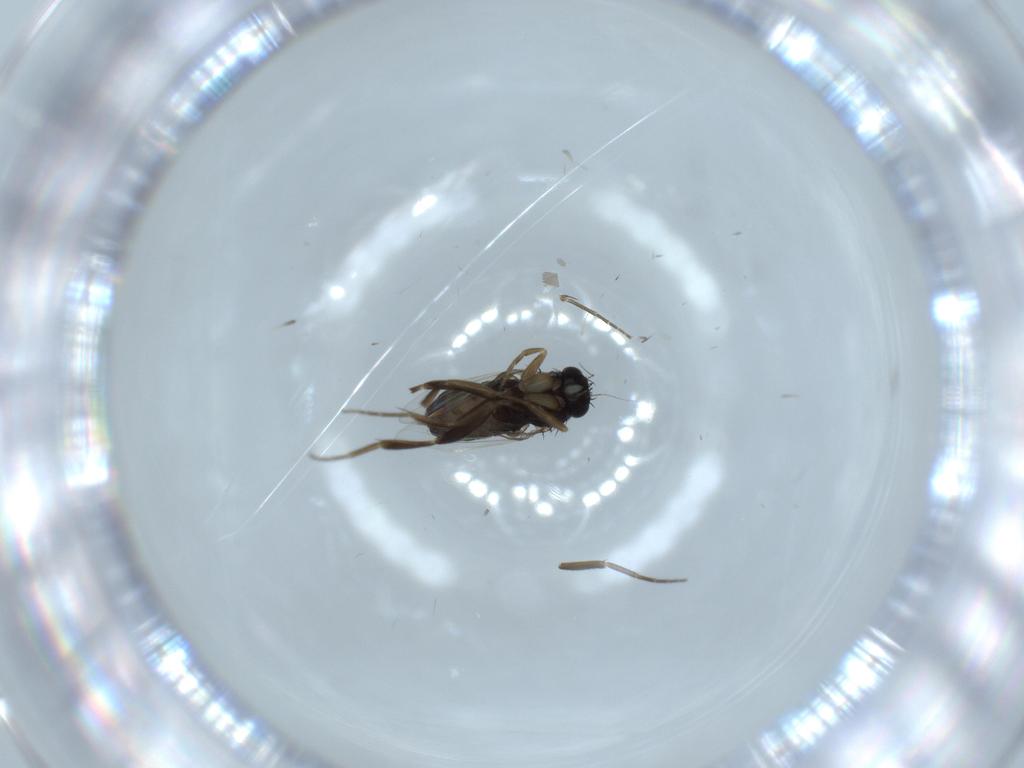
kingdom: Animalia
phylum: Arthropoda
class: Insecta
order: Diptera
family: Phoridae
